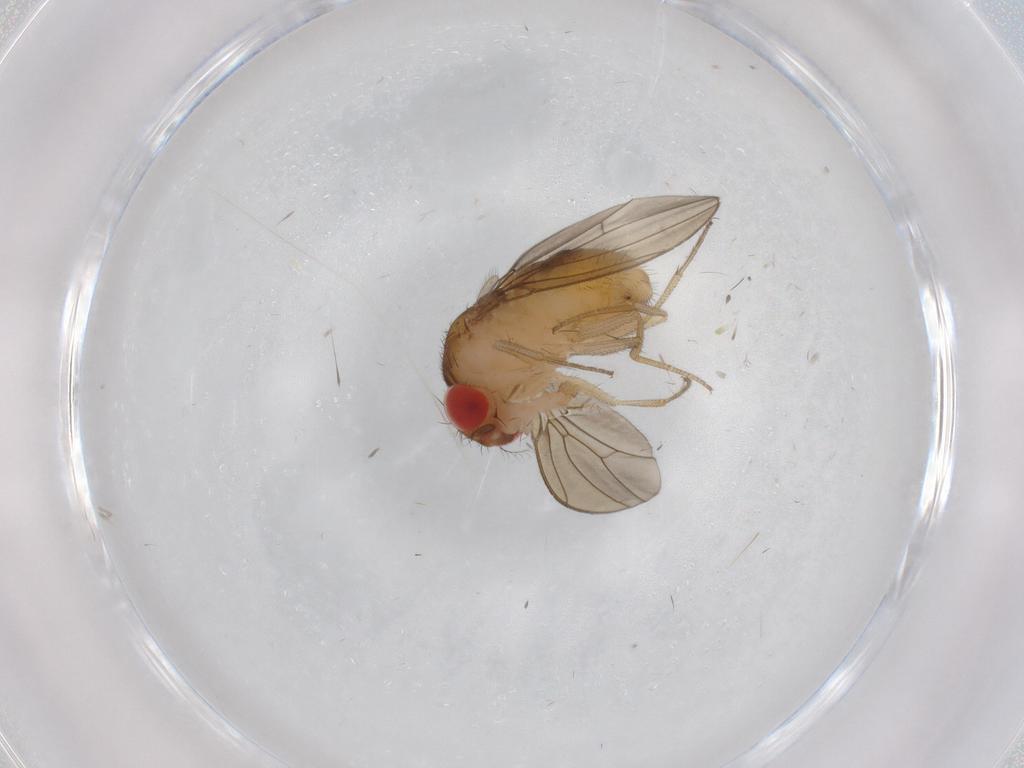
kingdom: Animalia
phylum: Arthropoda
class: Insecta
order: Diptera
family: Drosophilidae
